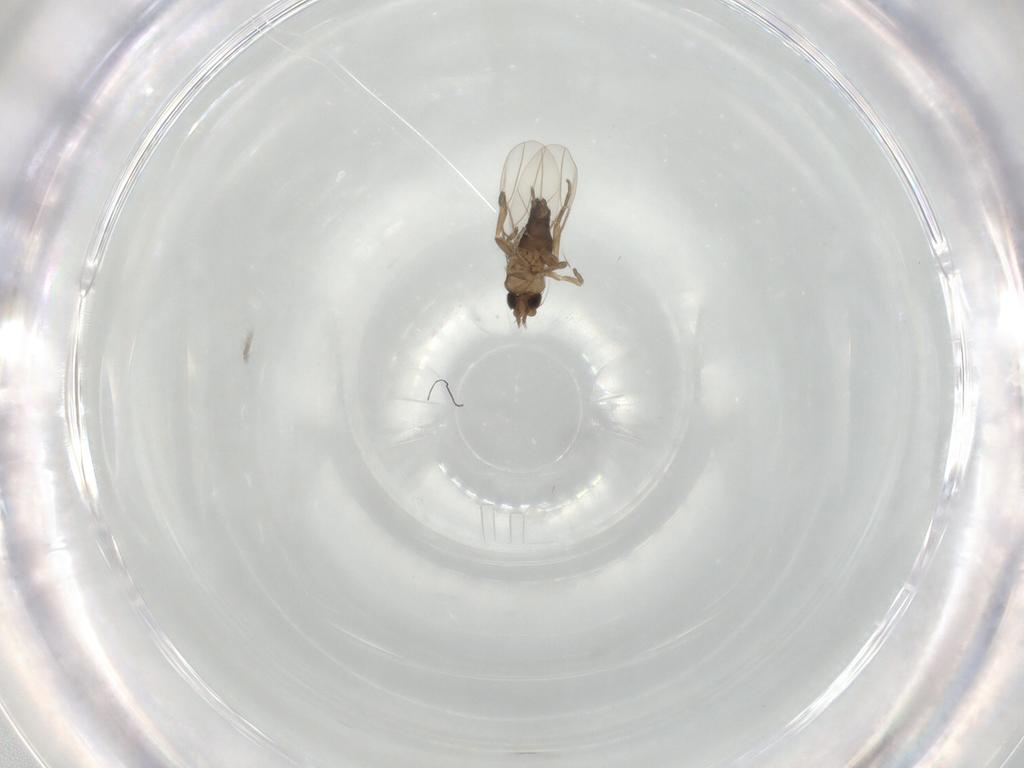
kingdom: Animalia
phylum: Arthropoda
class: Insecta
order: Diptera
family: Phoridae
